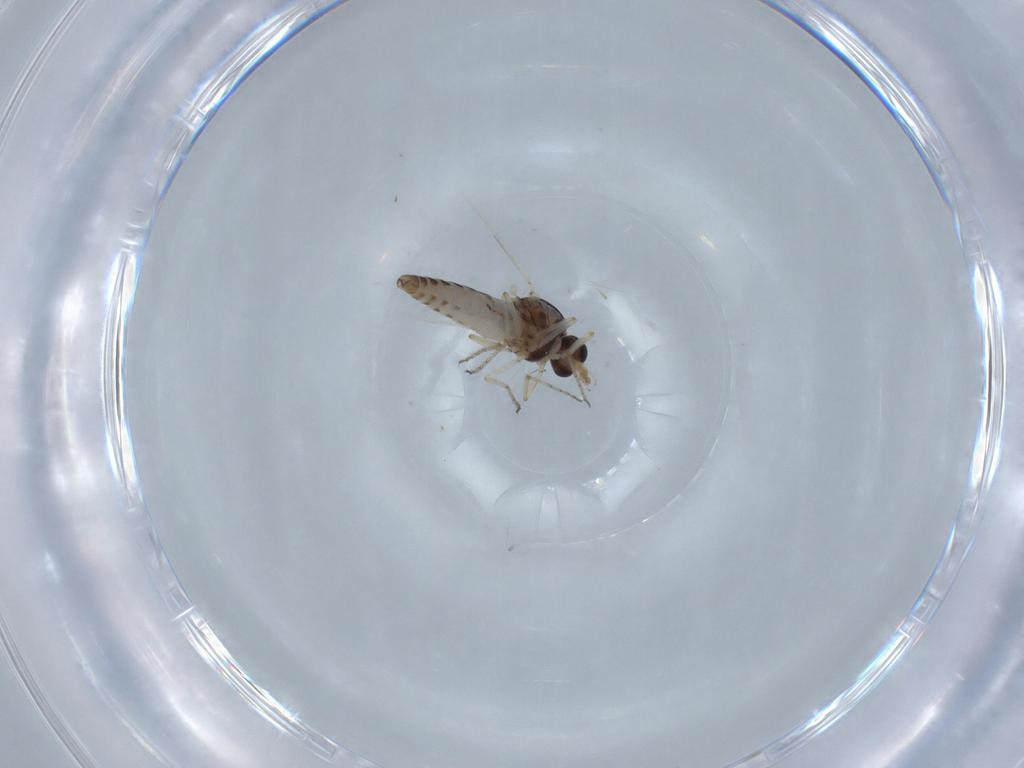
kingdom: Animalia
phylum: Arthropoda
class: Insecta
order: Diptera
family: Ceratopogonidae
